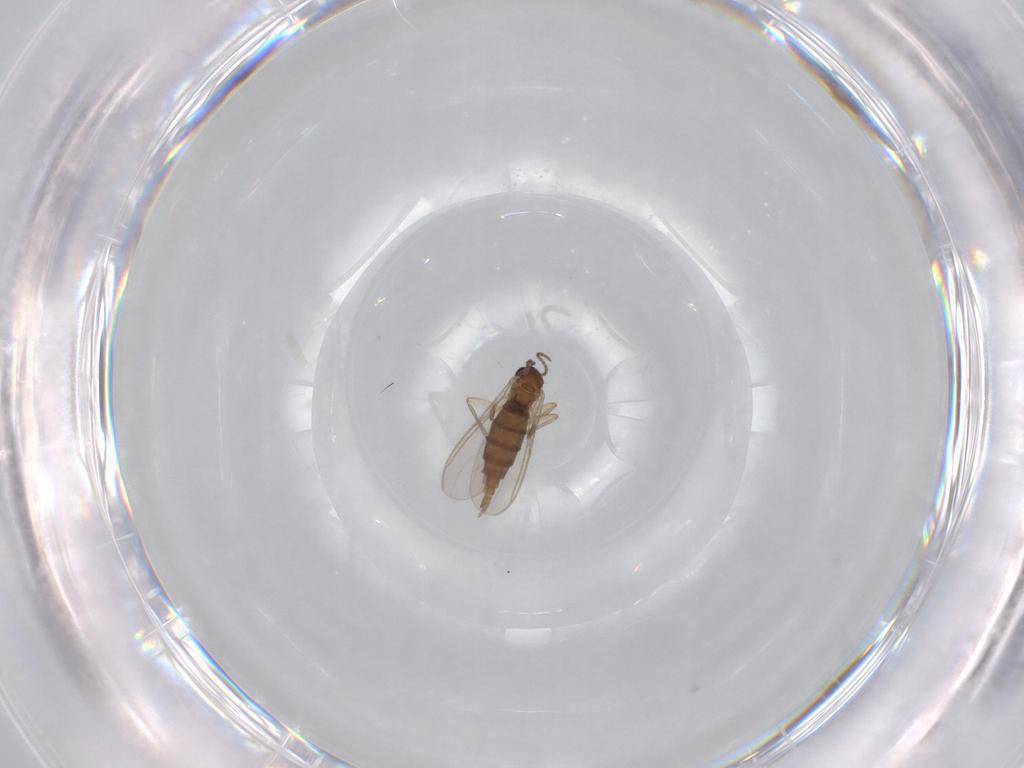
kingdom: Animalia
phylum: Arthropoda
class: Insecta
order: Diptera
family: Sciaridae
